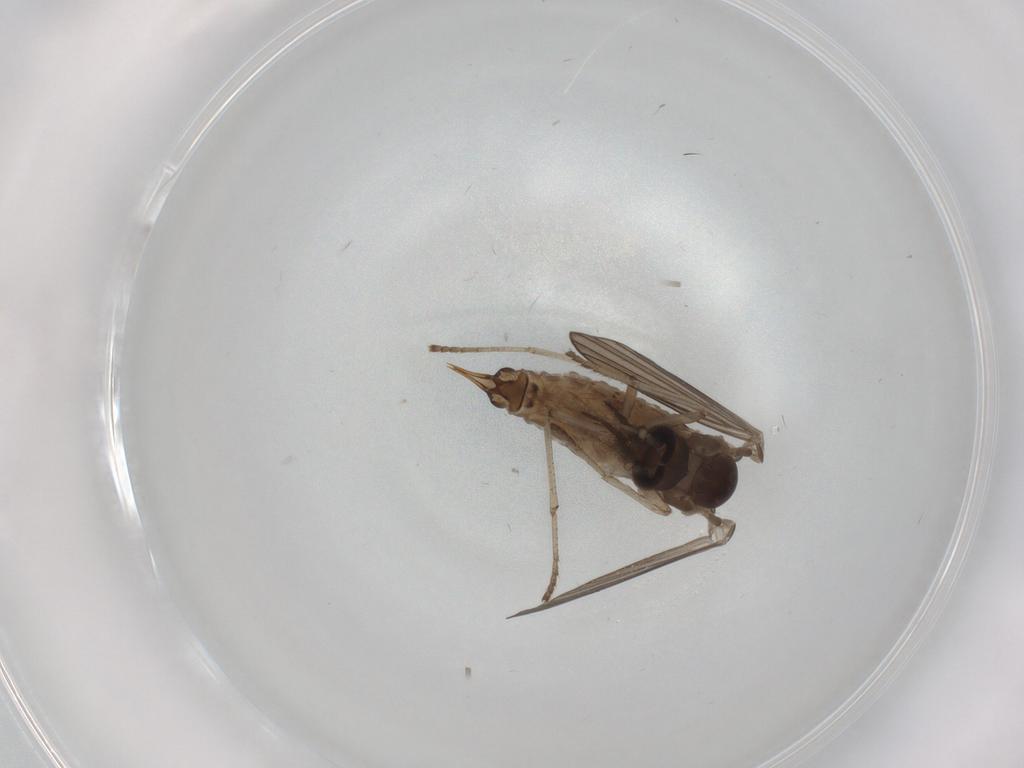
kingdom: Animalia
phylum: Arthropoda
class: Insecta
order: Diptera
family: Psychodidae
